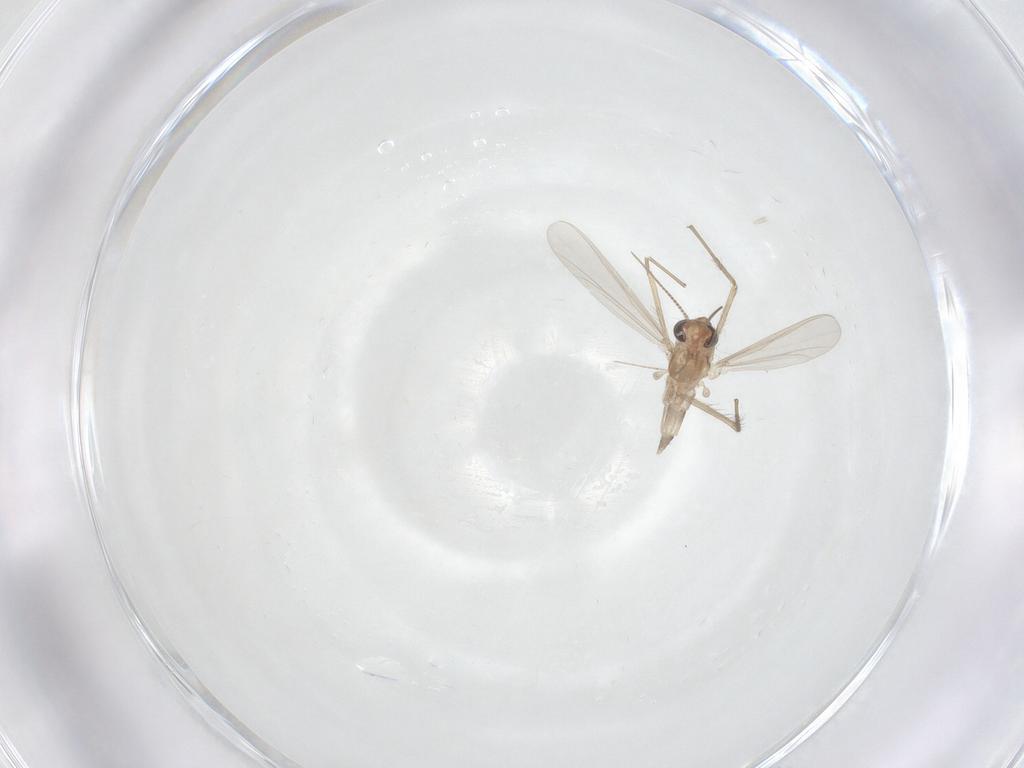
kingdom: Animalia
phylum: Arthropoda
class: Insecta
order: Diptera
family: Chironomidae
